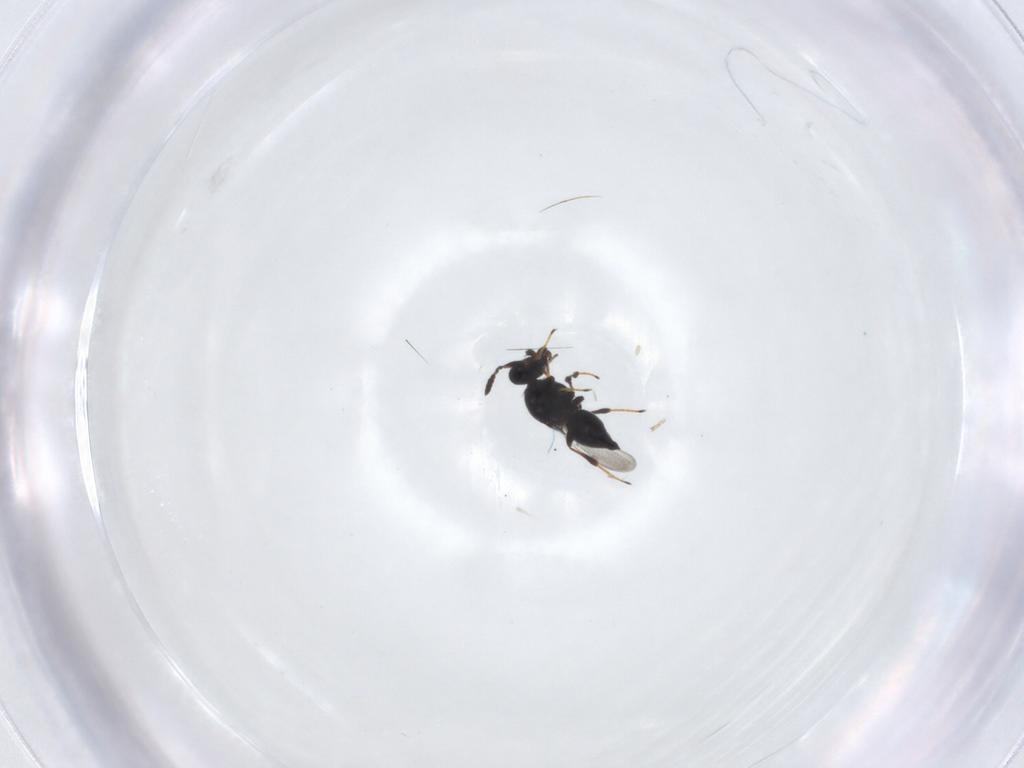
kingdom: Animalia
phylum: Arthropoda
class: Insecta
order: Hymenoptera
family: Platygastridae
